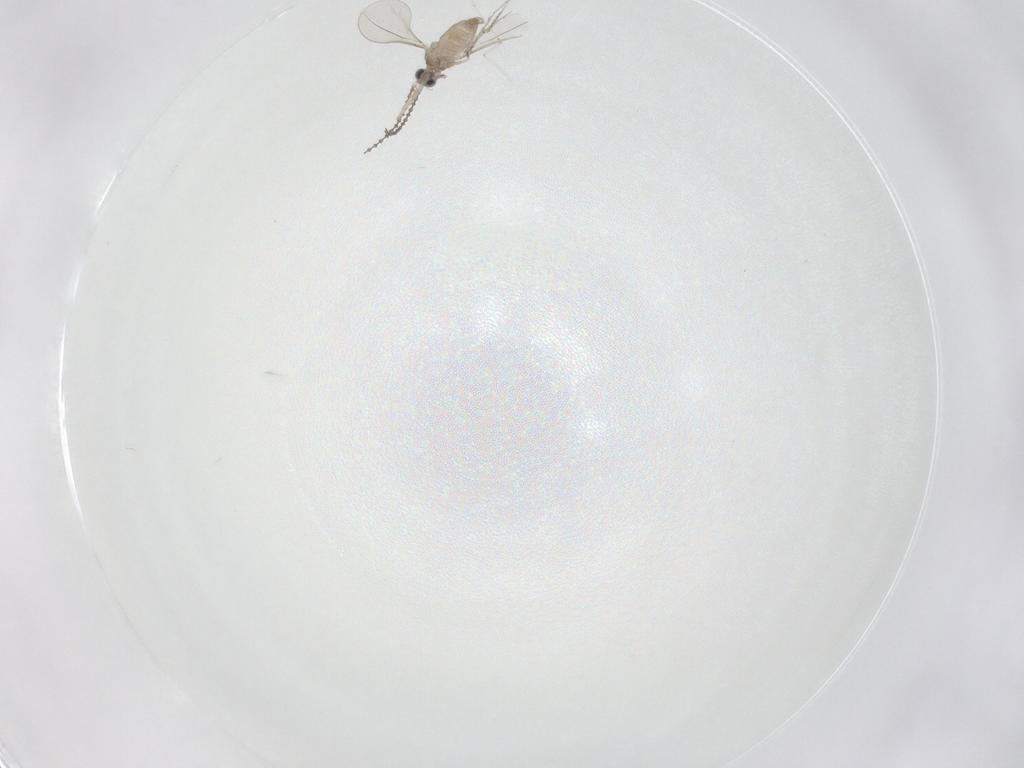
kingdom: Animalia
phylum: Arthropoda
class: Insecta
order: Diptera
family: Cecidomyiidae
